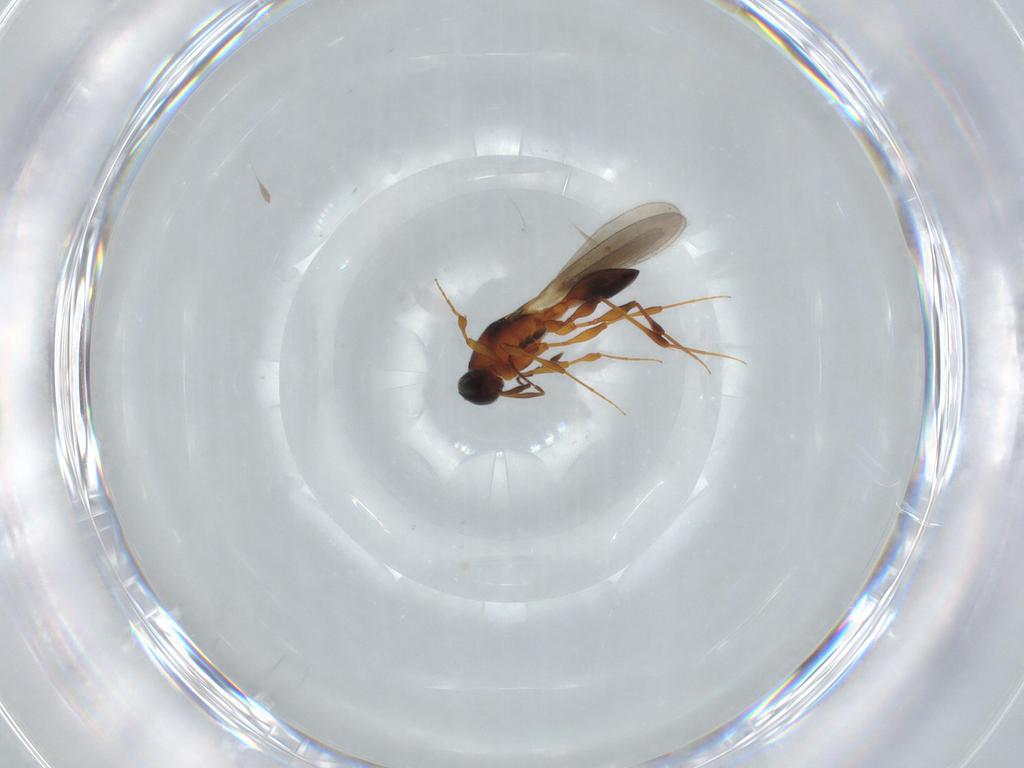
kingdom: Animalia
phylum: Arthropoda
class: Insecta
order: Hymenoptera
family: Platygastridae
